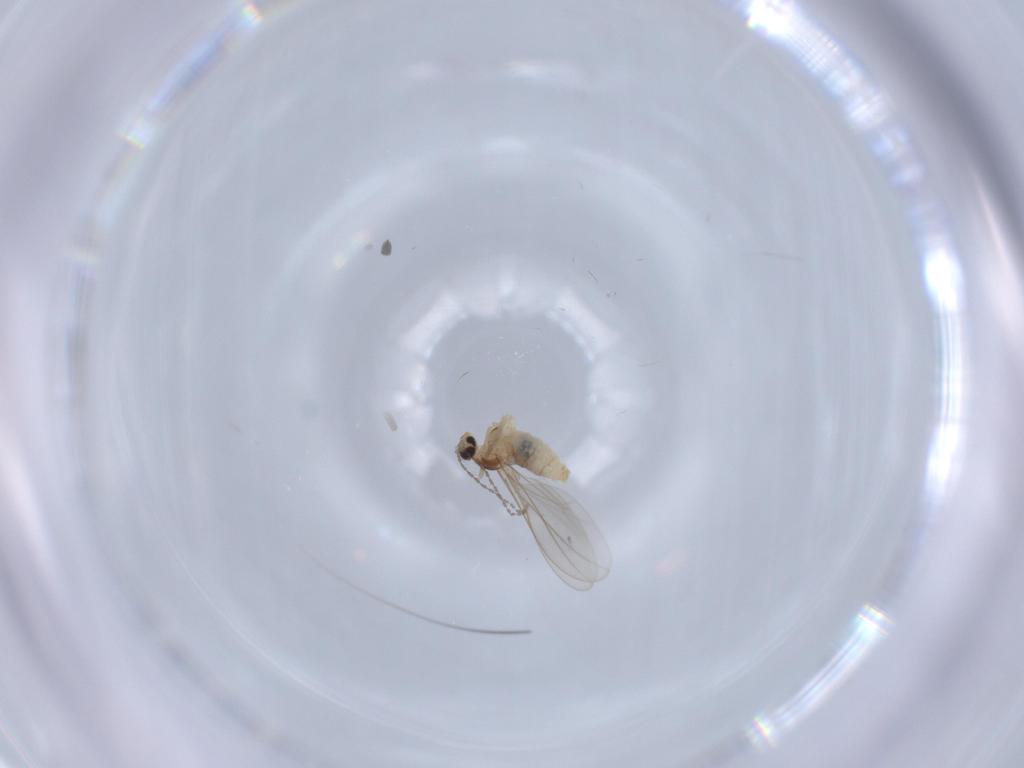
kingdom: Animalia
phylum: Arthropoda
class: Insecta
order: Diptera
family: Cecidomyiidae
